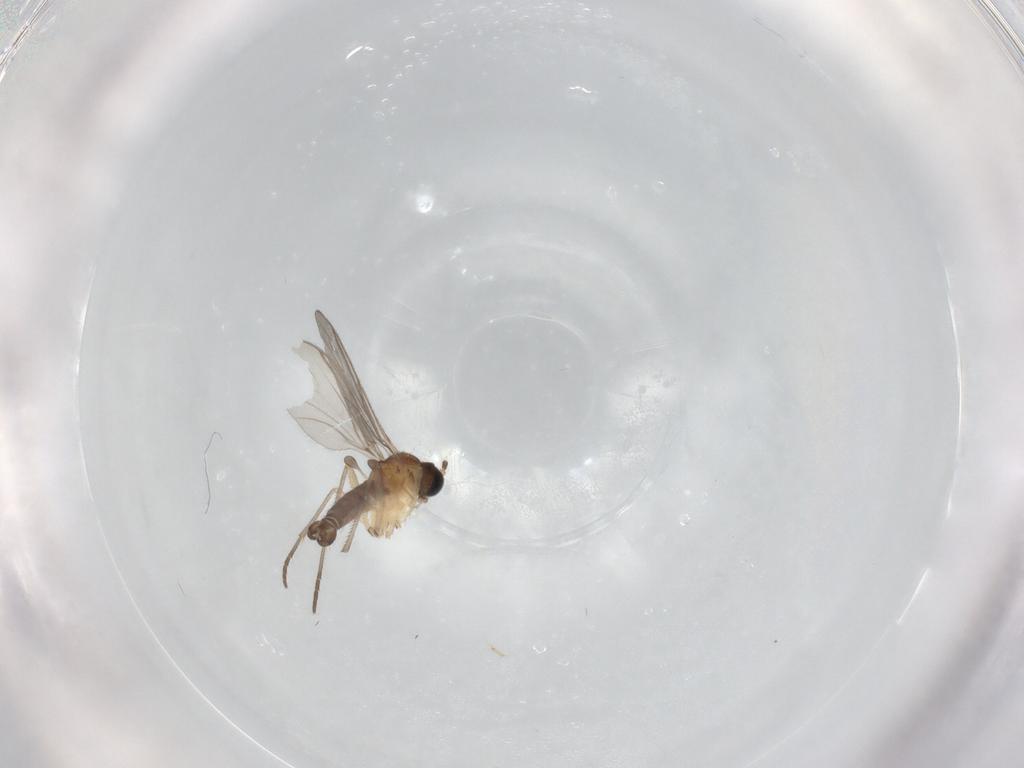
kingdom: Animalia
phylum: Arthropoda
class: Insecta
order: Diptera
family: Sciaridae
